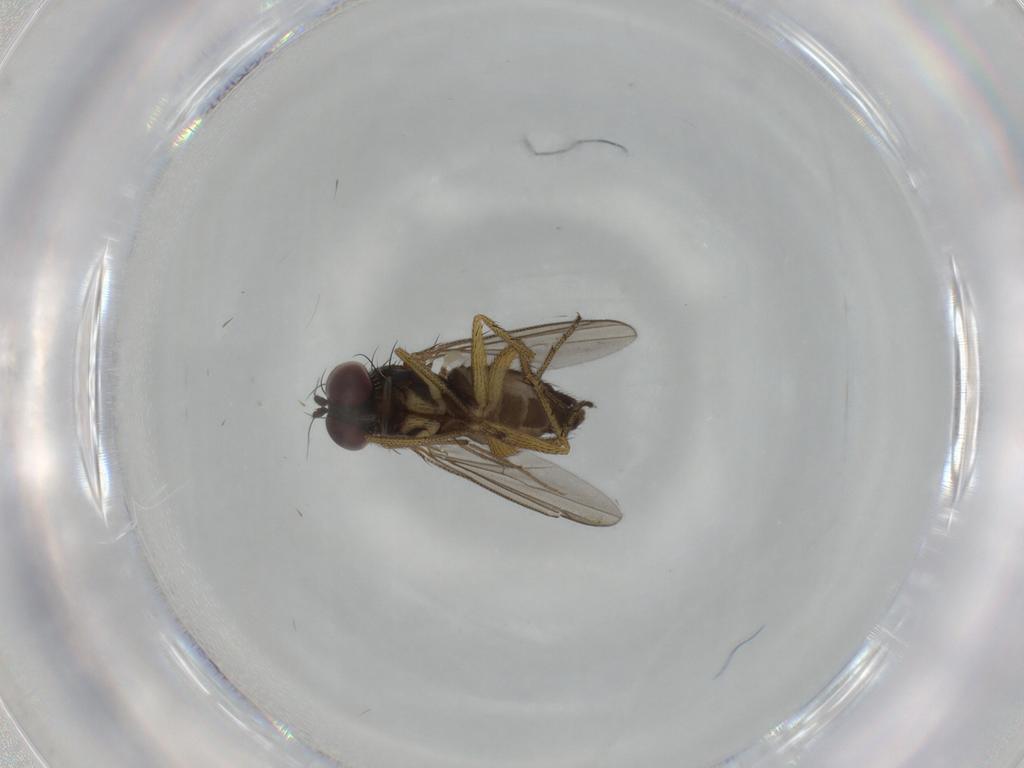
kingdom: Animalia
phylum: Arthropoda
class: Insecta
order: Diptera
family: Dolichopodidae
